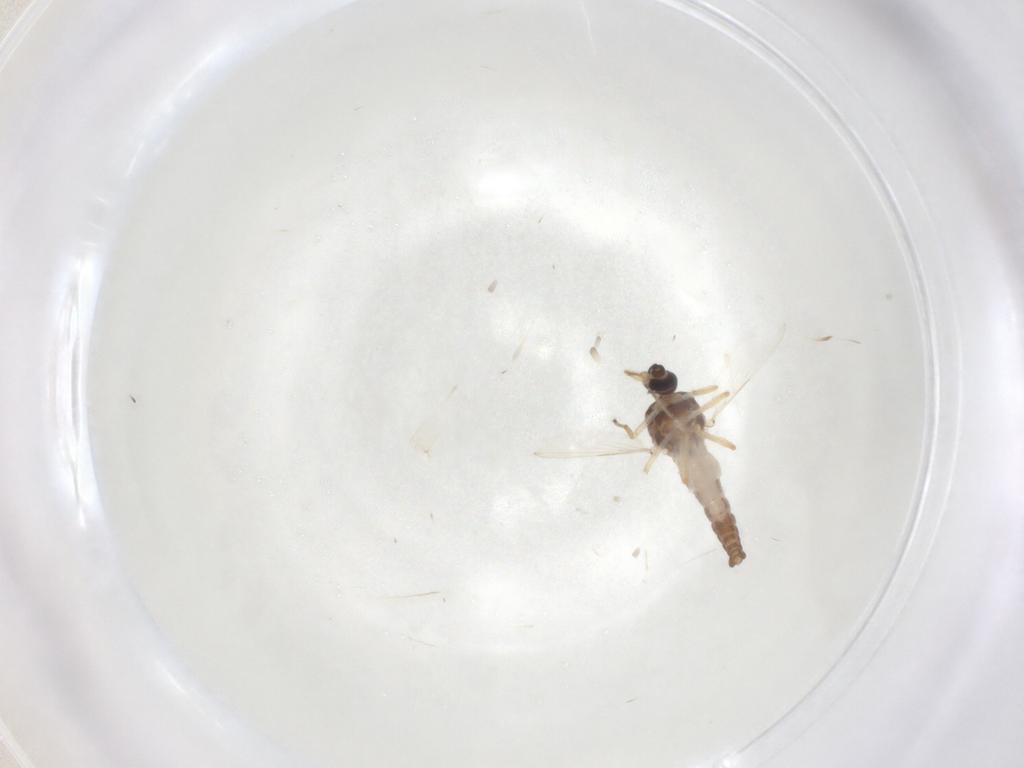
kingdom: Animalia
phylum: Arthropoda
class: Insecta
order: Diptera
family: Ceratopogonidae
